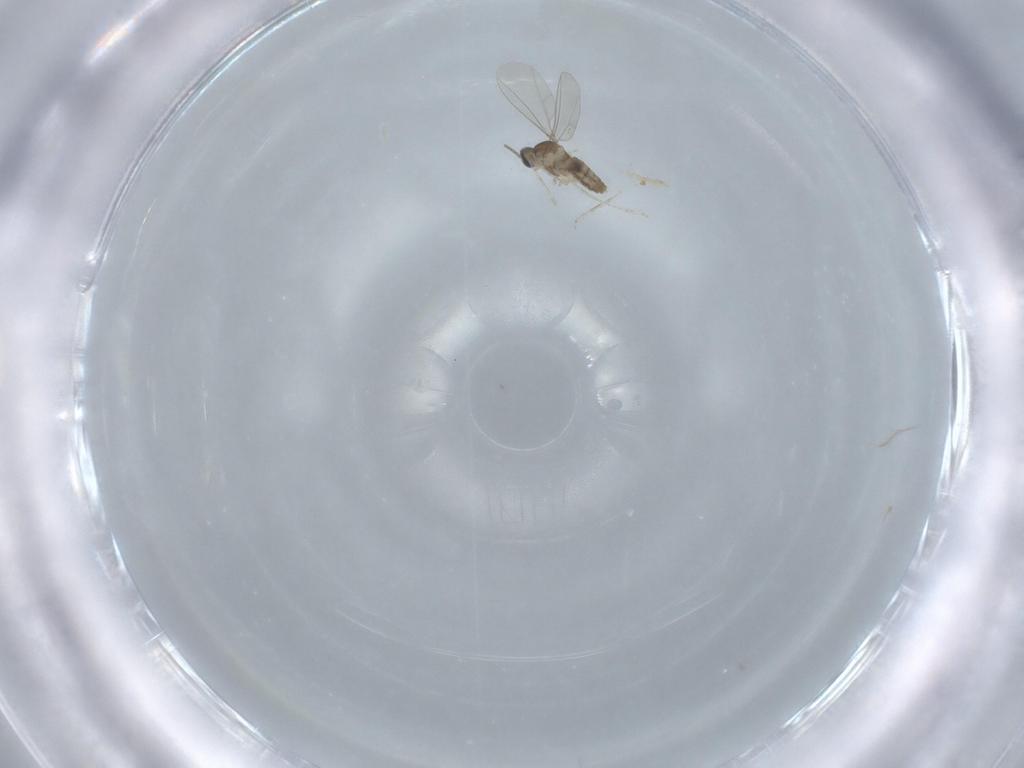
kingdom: Animalia
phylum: Arthropoda
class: Insecta
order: Diptera
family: Cecidomyiidae
